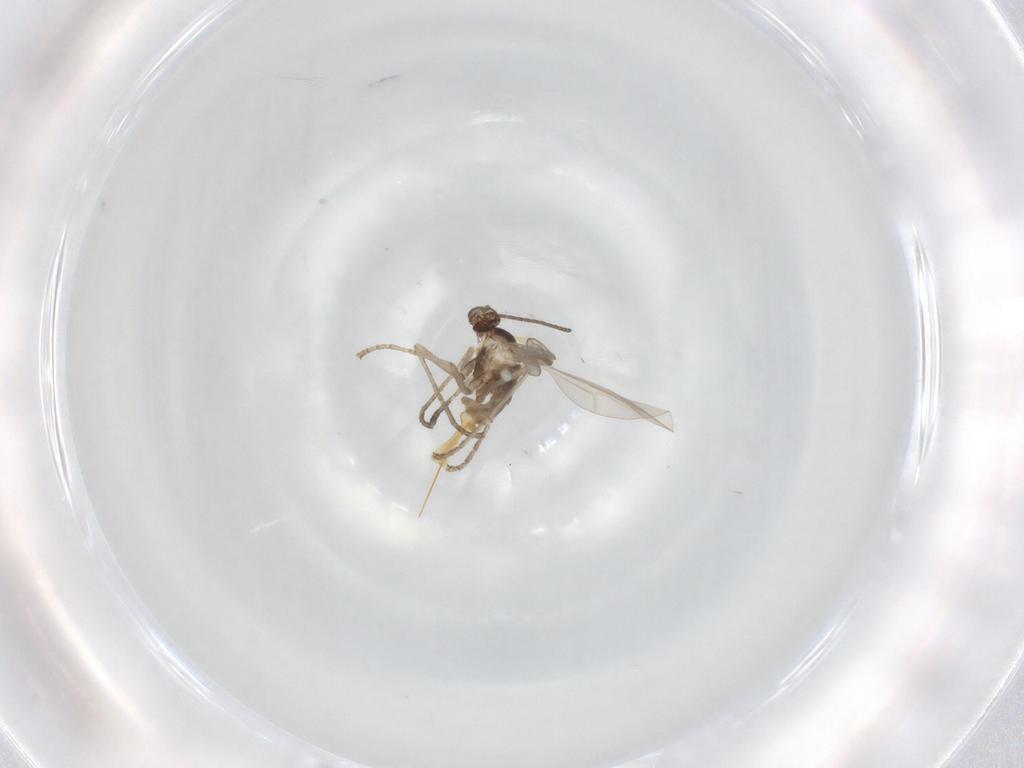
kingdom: Animalia
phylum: Arthropoda
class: Insecta
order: Diptera
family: Cecidomyiidae
